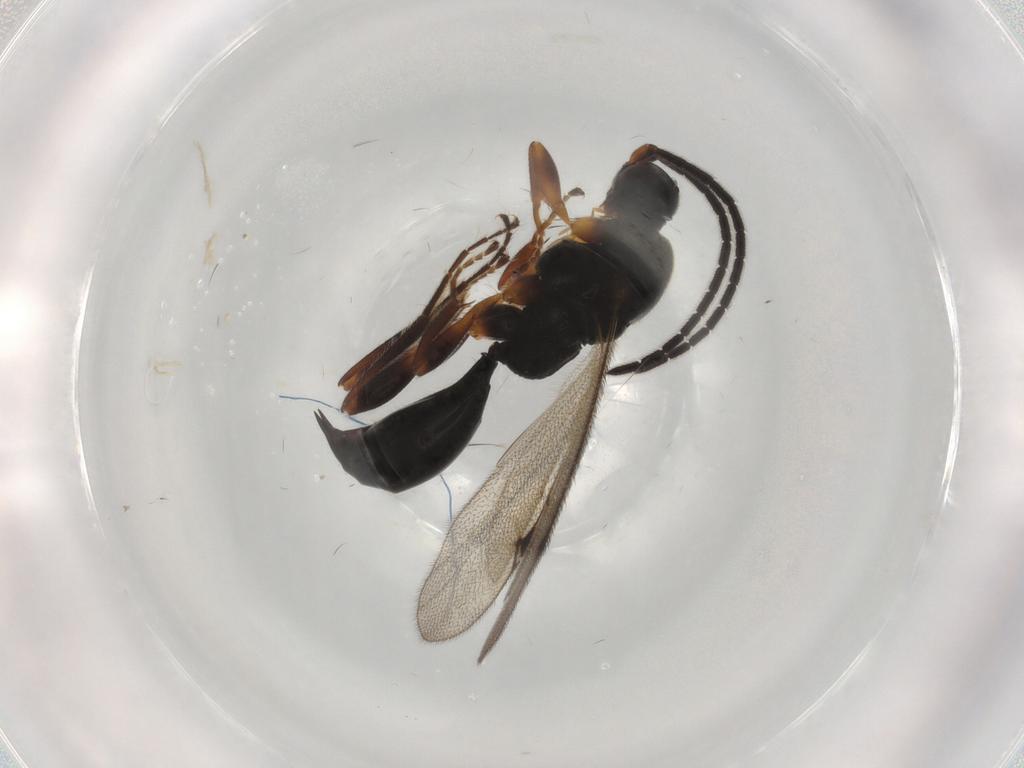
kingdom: Animalia
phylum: Arthropoda
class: Insecta
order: Hymenoptera
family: Proctotrupidae
